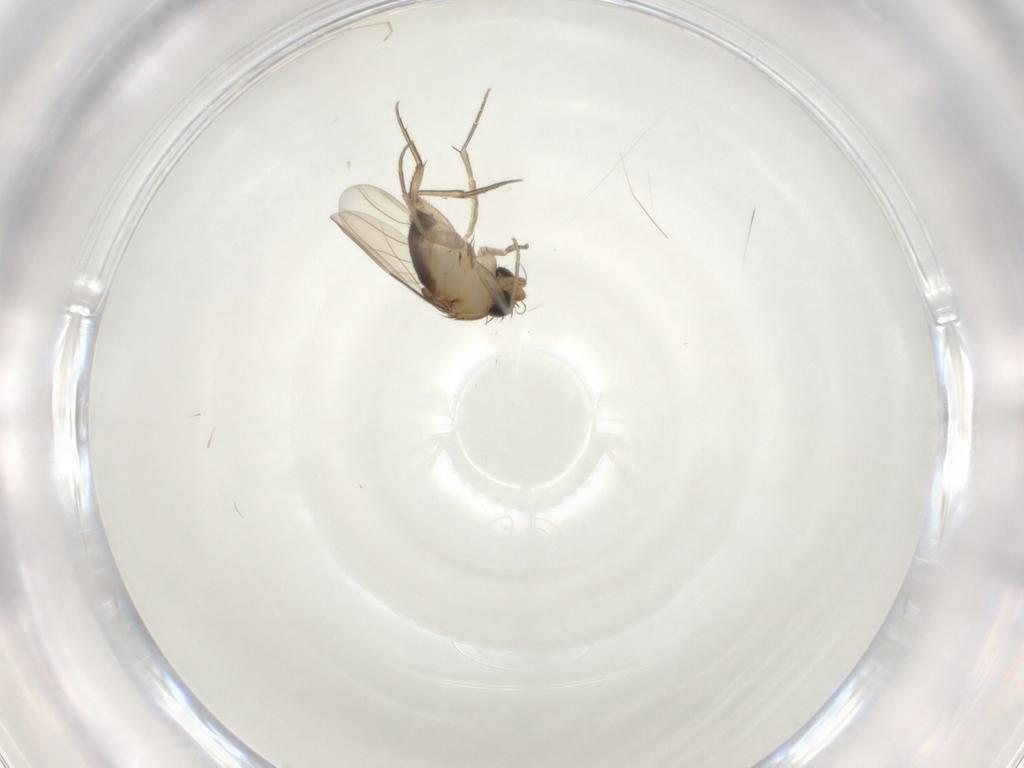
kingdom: Animalia
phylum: Arthropoda
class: Insecta
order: Diptera
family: Phoridae
